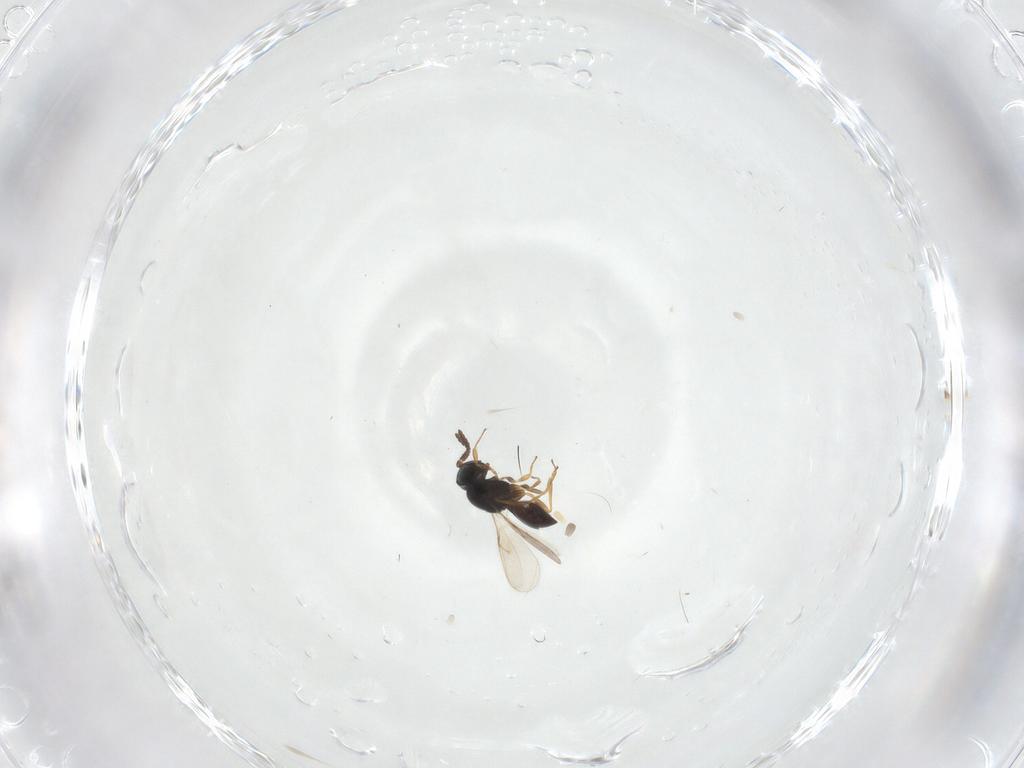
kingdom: Animalia
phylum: Arthropoda
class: Insecta
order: Hymenoptera
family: Scelionidae
